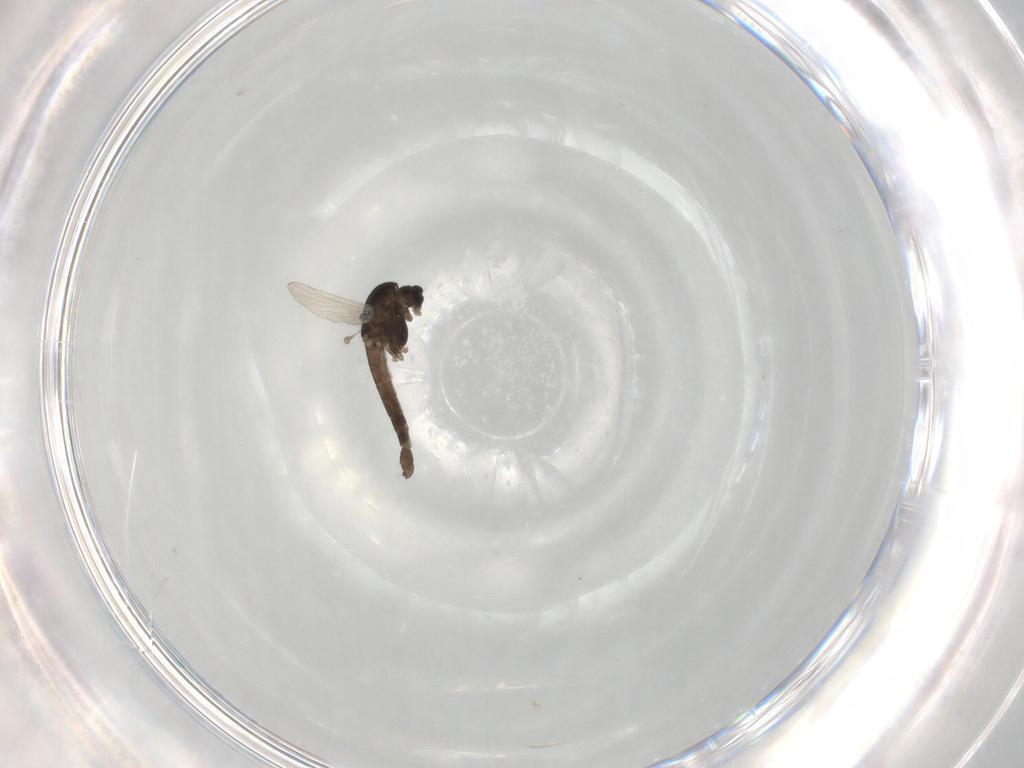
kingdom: Animalia
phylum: Arthropoda
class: Insecta
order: Diptera
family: Chironomidae
